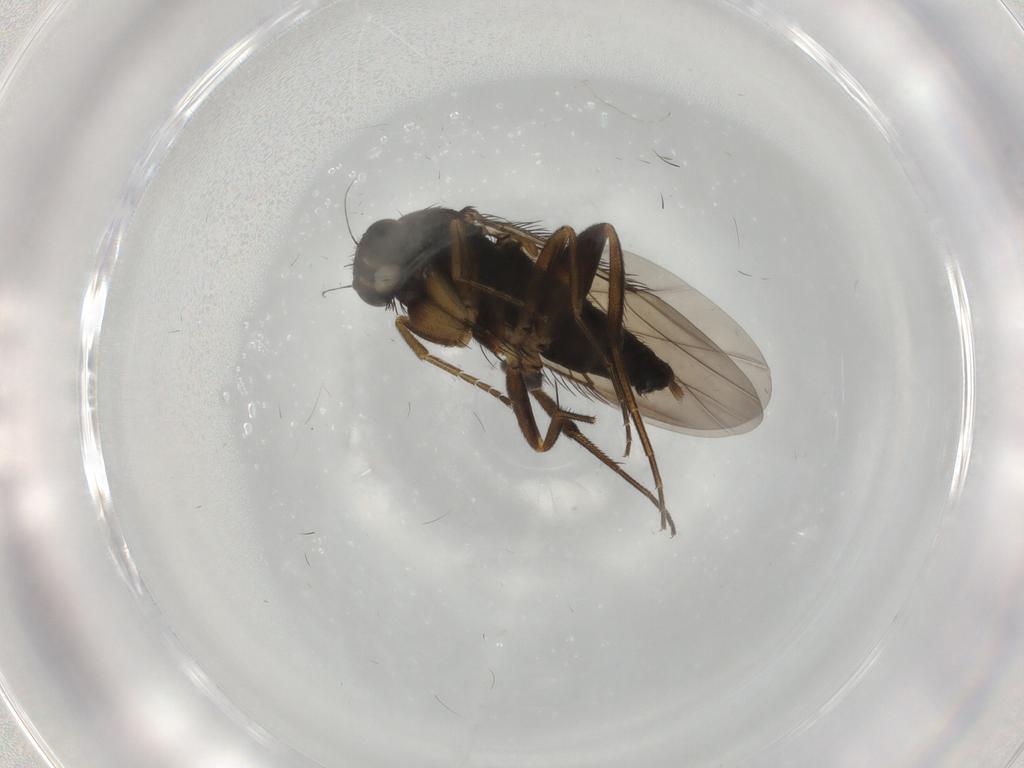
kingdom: Animalia
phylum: Arthropoda
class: Insecta
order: Diptera
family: Phoridae
